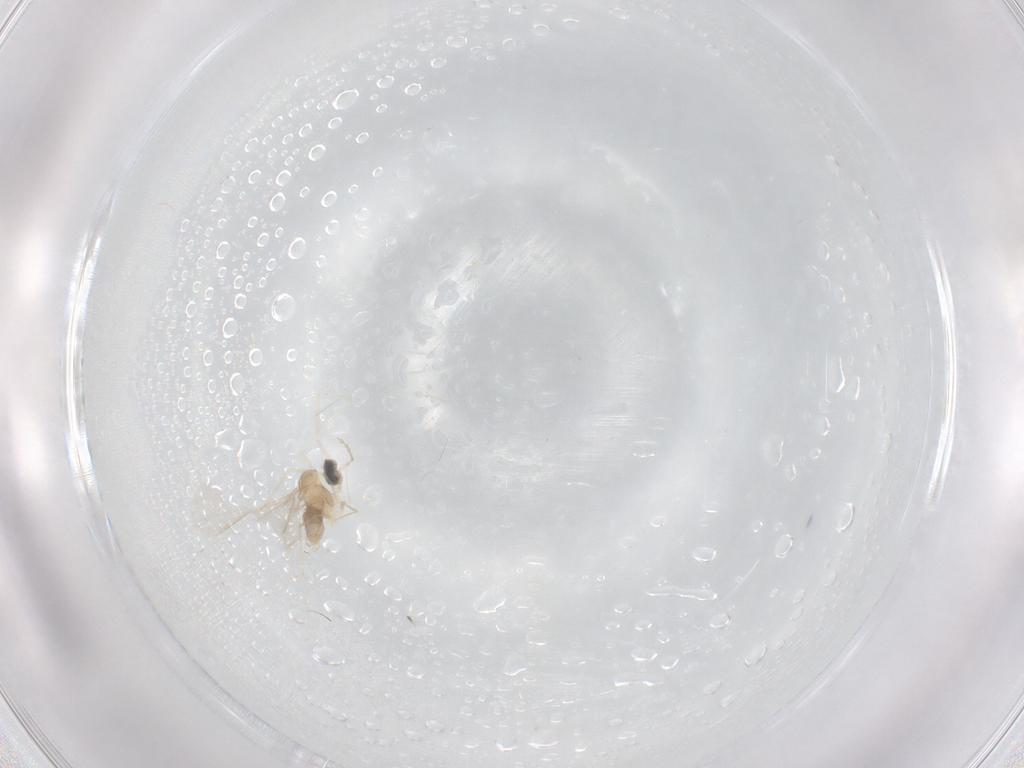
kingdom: Animalia
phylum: Arthropoda
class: Insecta
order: Diptera
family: Cecidomyiidae
